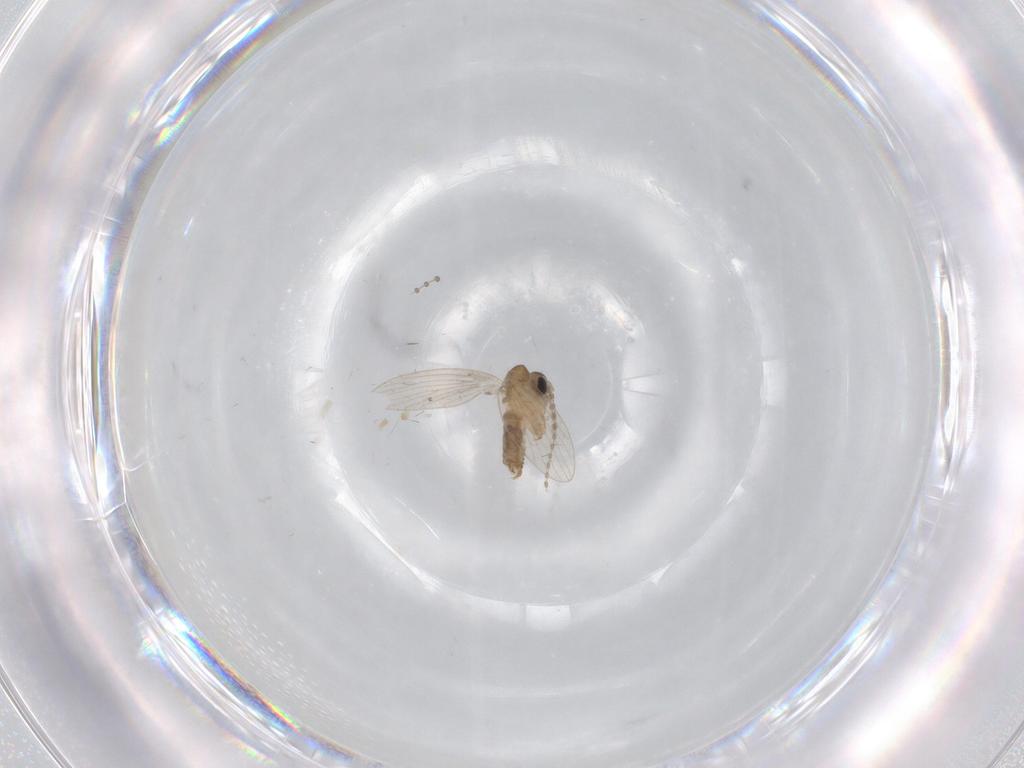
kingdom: Animalia
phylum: Arthropoda
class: Insecta
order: Diptera
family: Psychodidae
